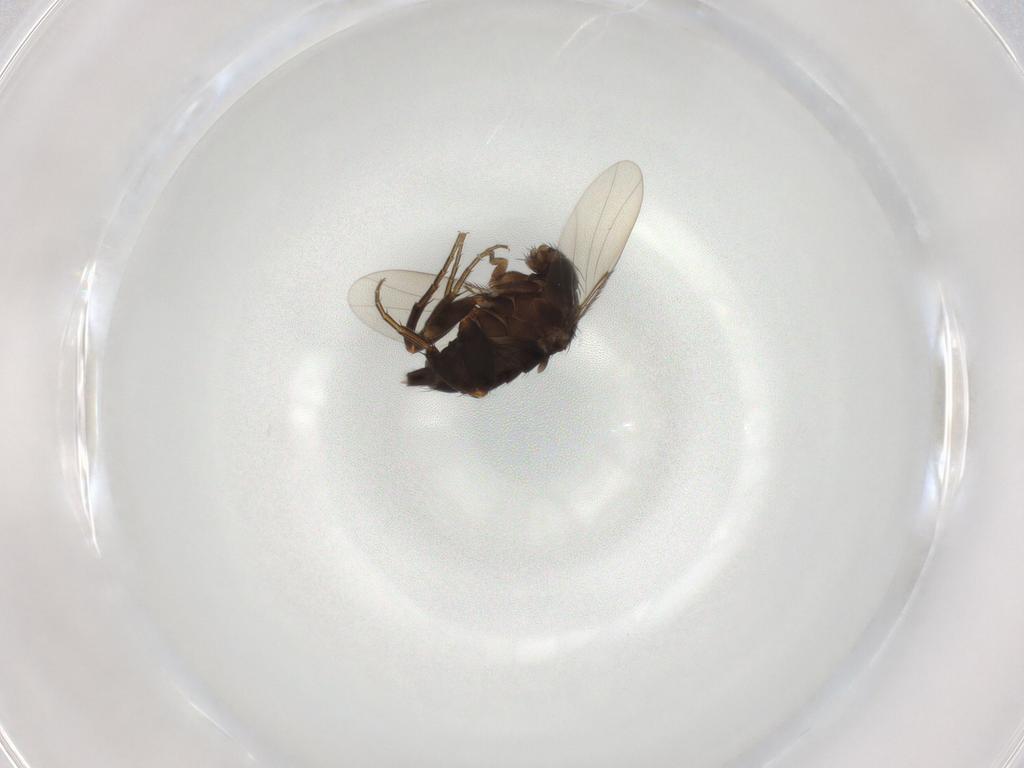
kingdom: Animalia
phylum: Arthropoda
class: Insecta
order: Diptera
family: Phoridae
